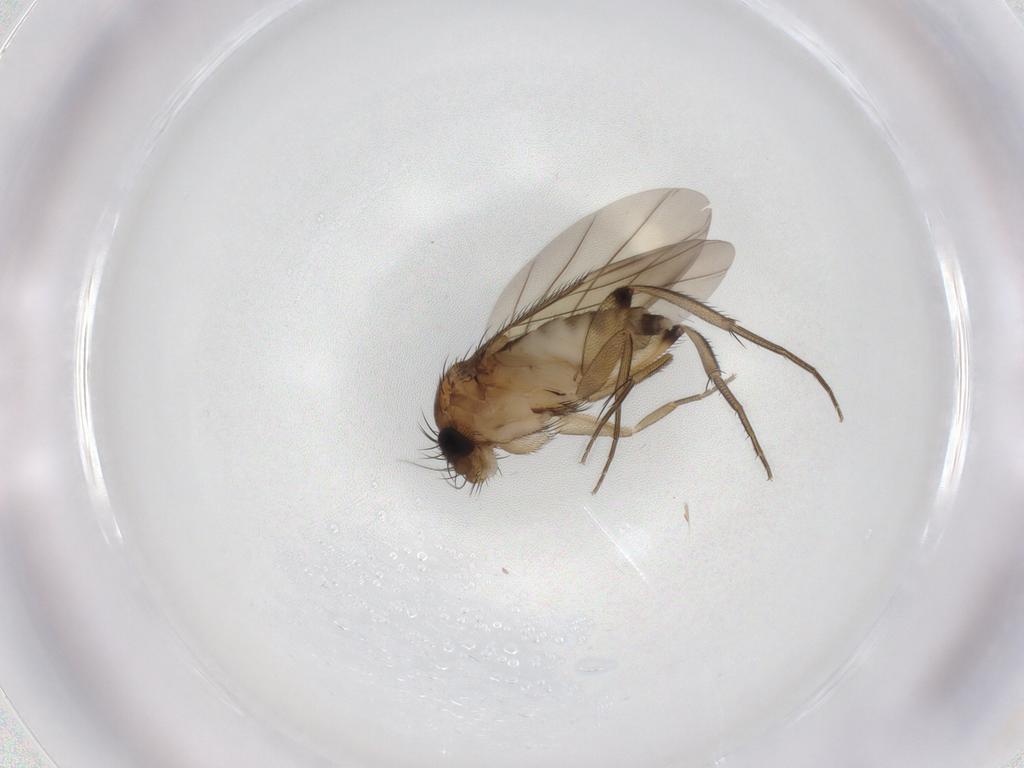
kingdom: Animalia
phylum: Arthropoda
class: Insecta
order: Diptera
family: Phoridae
